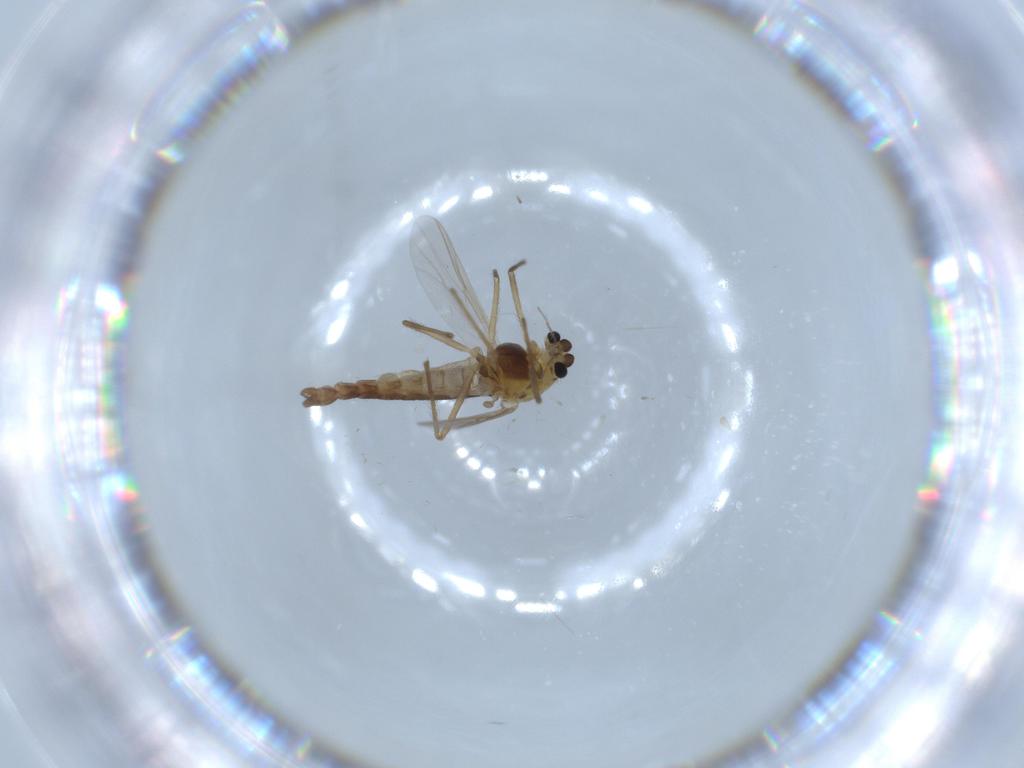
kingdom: Animalia
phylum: Arthropoda
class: Insecta
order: Diptera
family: Chironomidae
